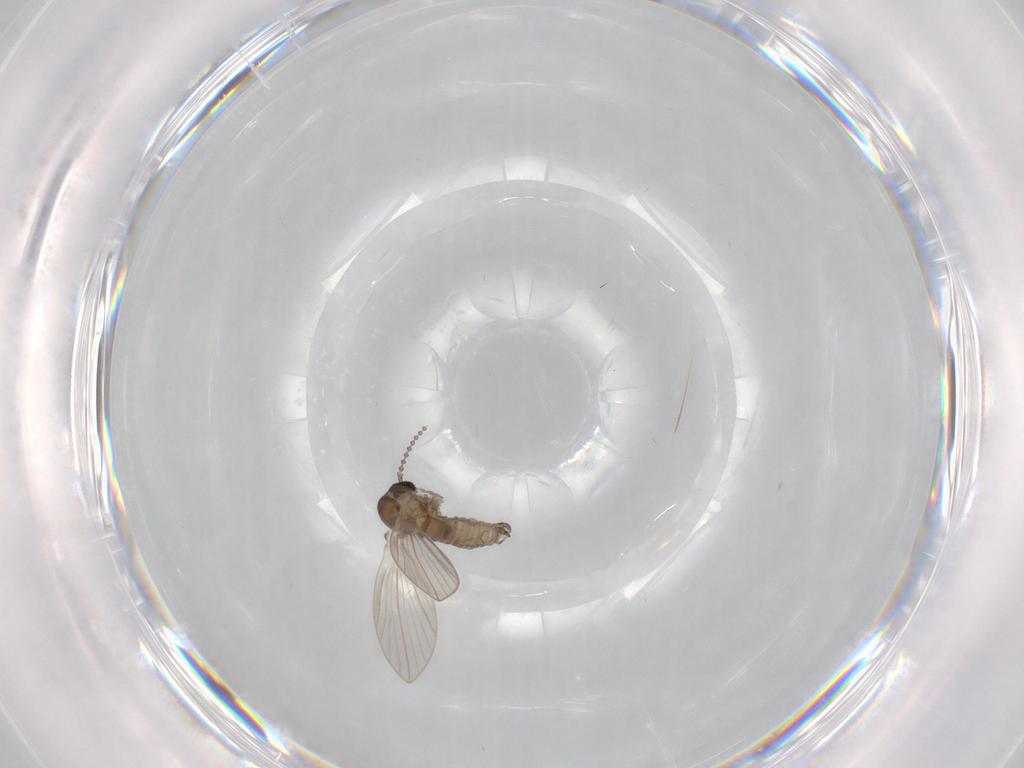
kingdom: Animalia
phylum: Arthropoda
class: Insecta
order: Diptera
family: Psychodidae
